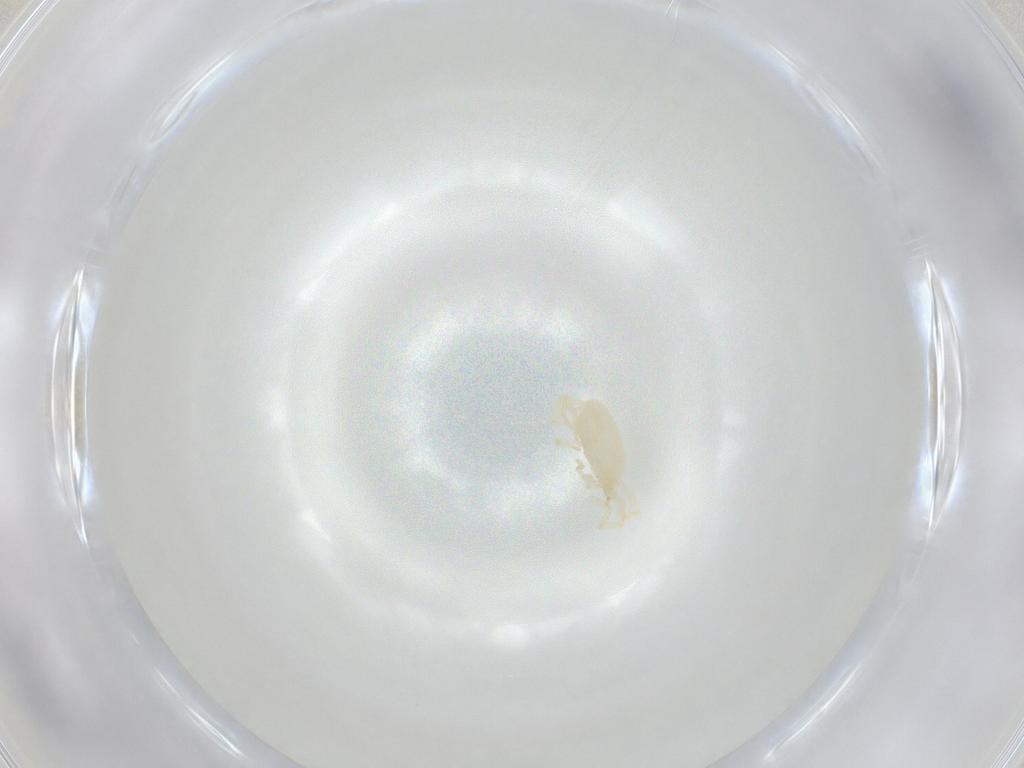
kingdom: Animalia
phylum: Arthropoda
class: Arachnida
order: Trombidiformes
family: Erythraeidae
